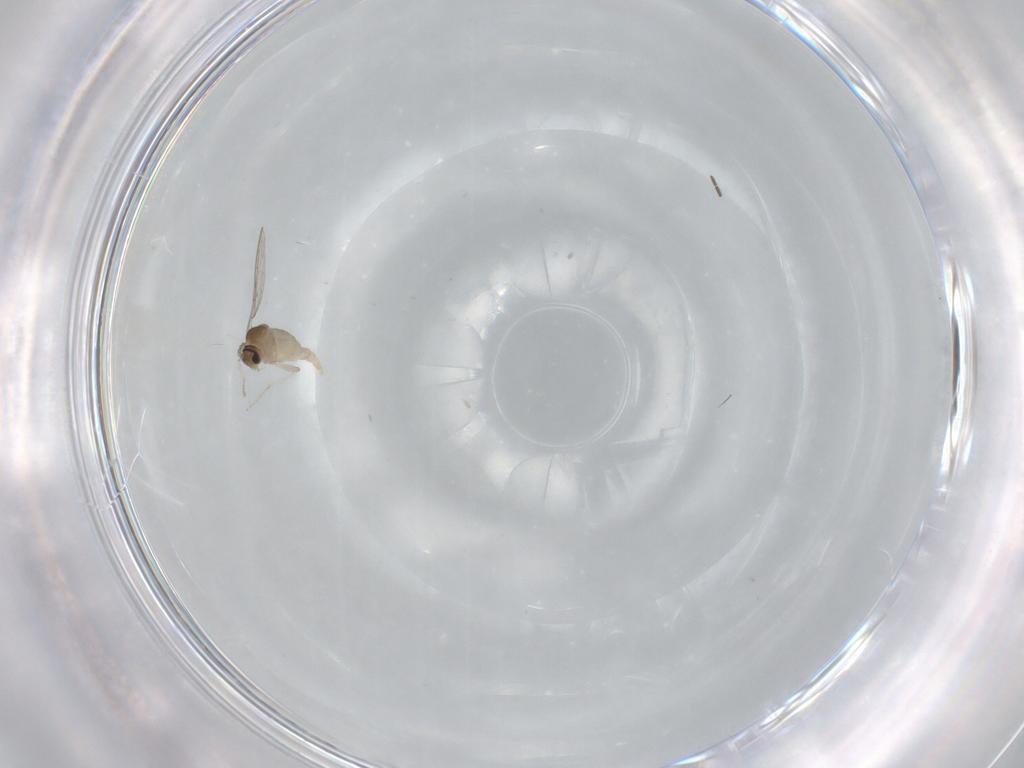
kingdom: Animalia
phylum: Arthropoda
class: Insecta
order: Diptera
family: Cecidomyiidae
